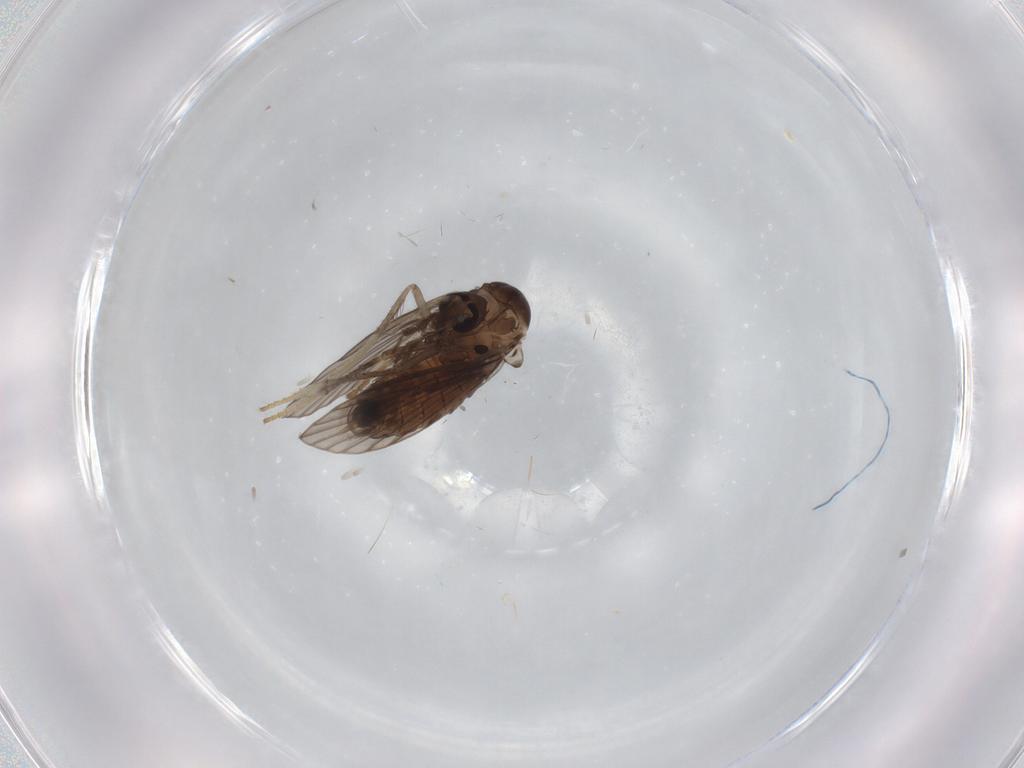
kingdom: Animalia
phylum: Arthropoda
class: Insecta
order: Diptera
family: Psychodidae
